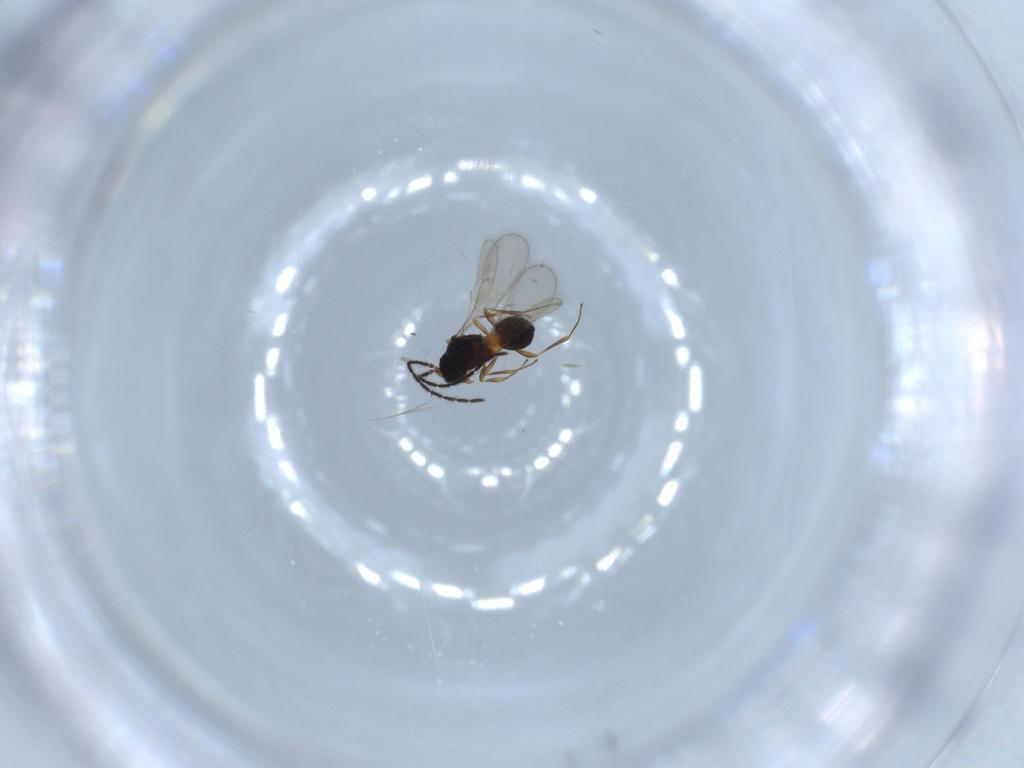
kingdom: Animalia
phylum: Arthropoda
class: Insecta
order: Hymenoptera
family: Scelionidae
